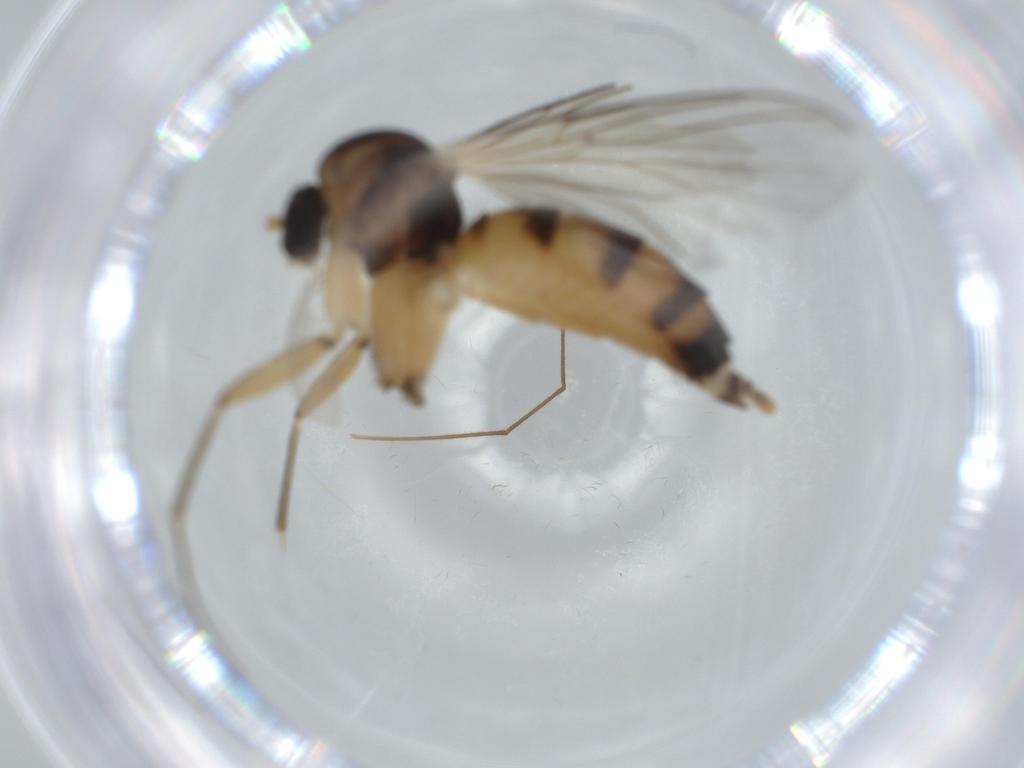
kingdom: Animalia
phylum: Arthropoda
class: Insecta
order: Diptera
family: Mycetophilidae
